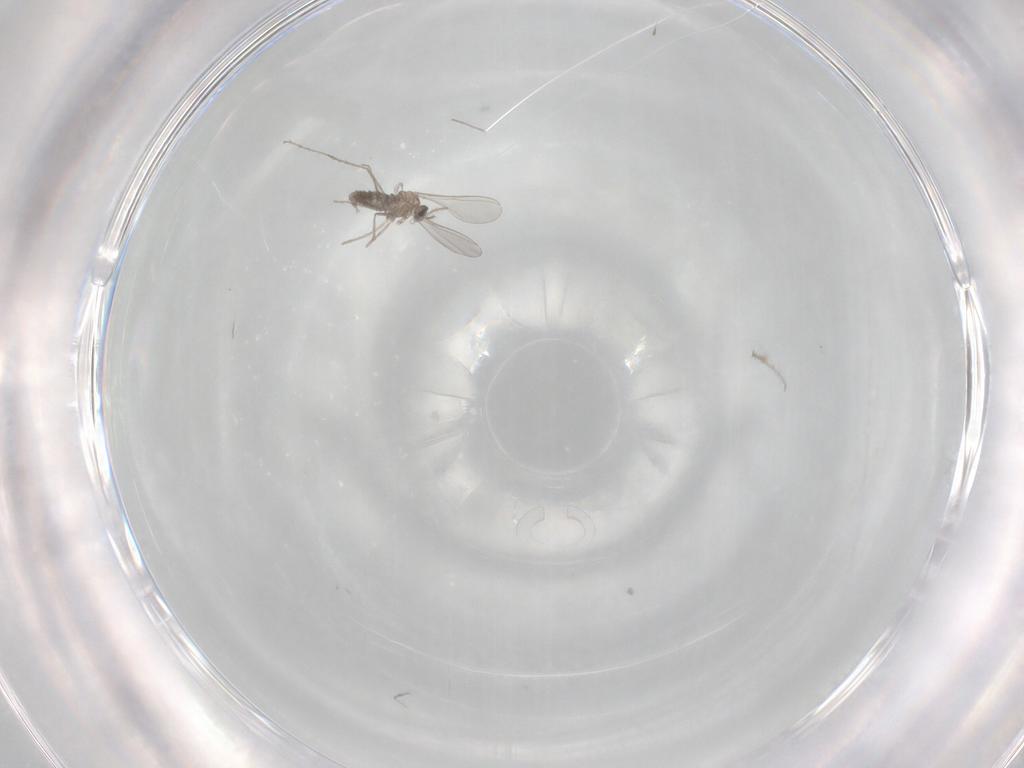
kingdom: Animalia
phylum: Arthropoda
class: Insecta
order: Diptera
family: Cecidomyiidae
